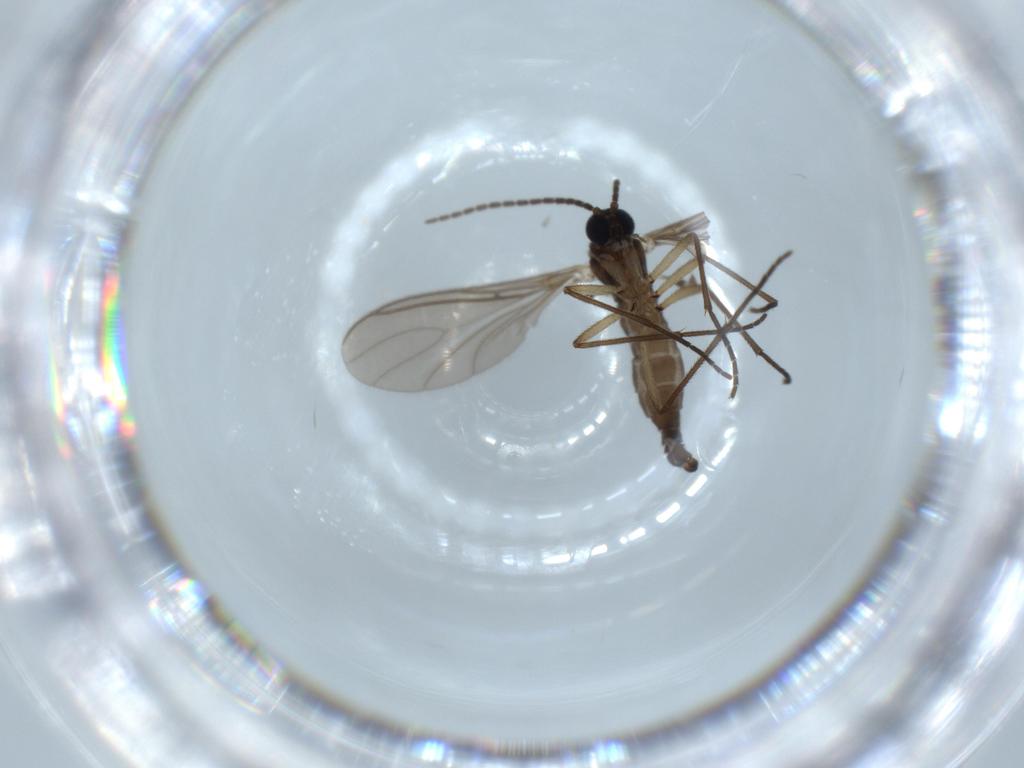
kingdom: Animalia
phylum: Arthropoda
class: Insecta
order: Diptera
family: Sciaridae
